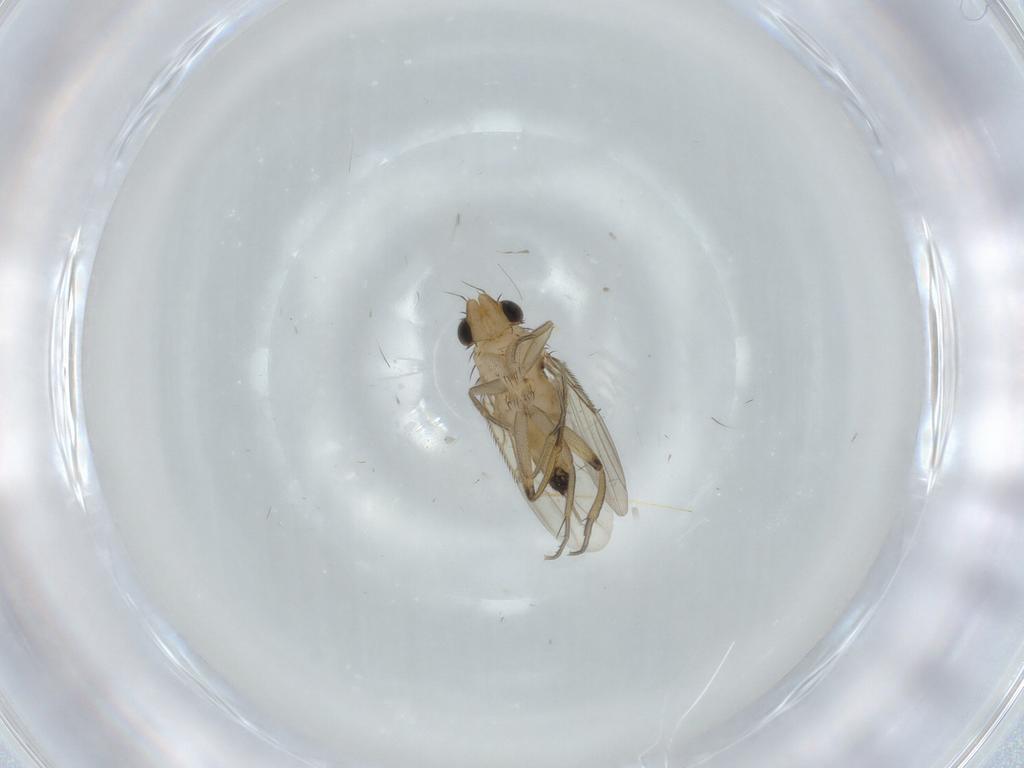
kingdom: Animalia
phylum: Arthropoda
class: Insecta
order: Diptera
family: Phoridae
